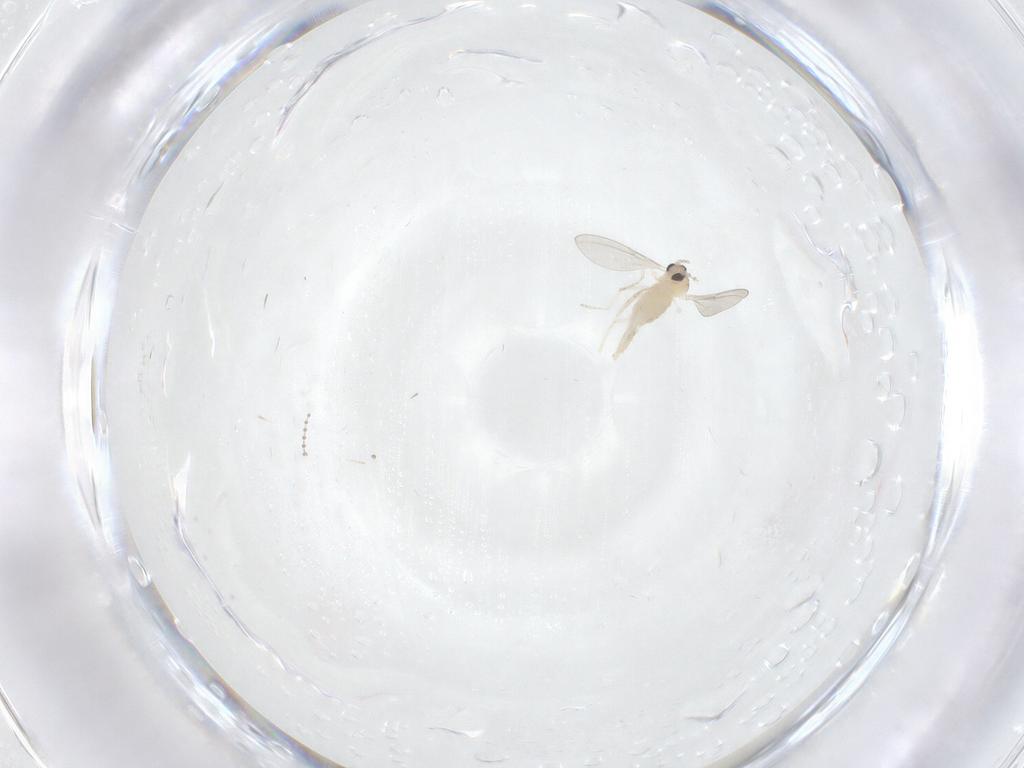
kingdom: Animalia
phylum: Arthropoda
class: Insecta
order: Diptera
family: Cecidomyiidae
